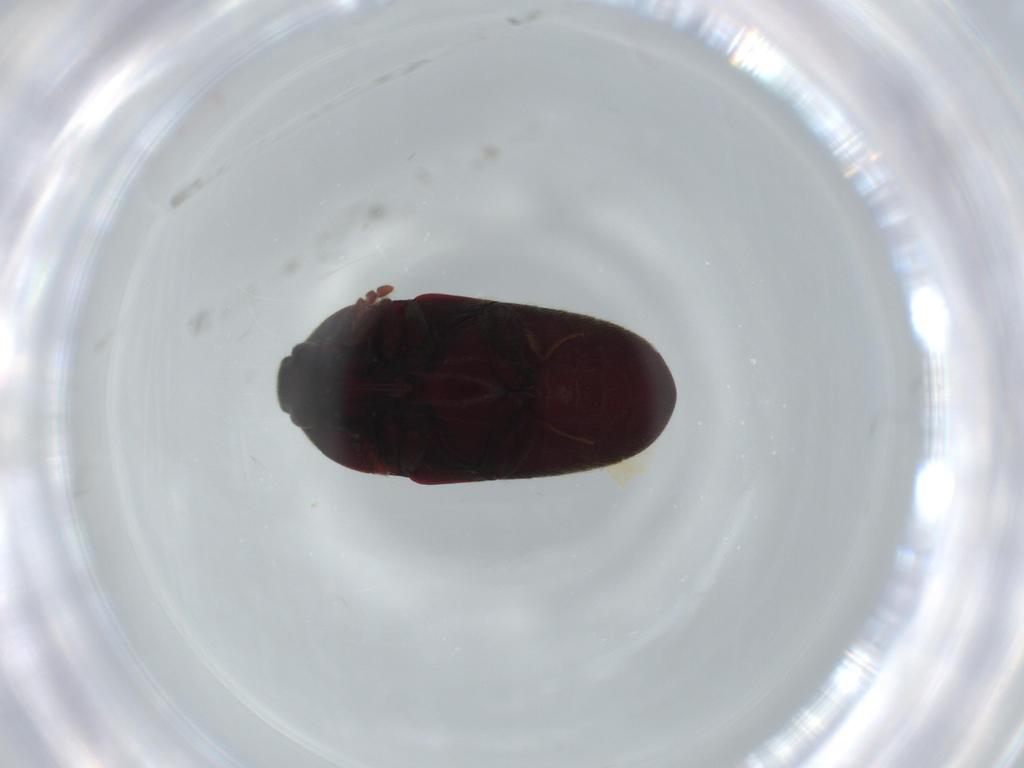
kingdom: Animalia
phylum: Arthropoda
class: Insecta
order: Coleoptera
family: Throscidae
